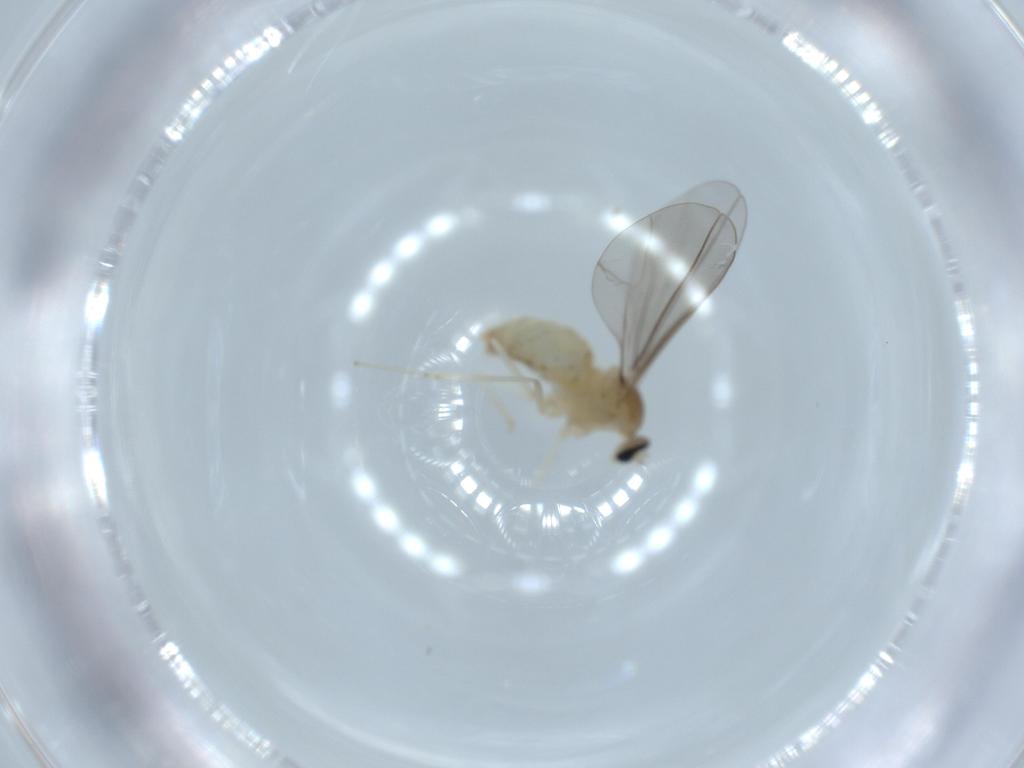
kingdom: Animalia
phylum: Arthropoda
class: Insecta
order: Diptera
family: Cecidomyiidae
